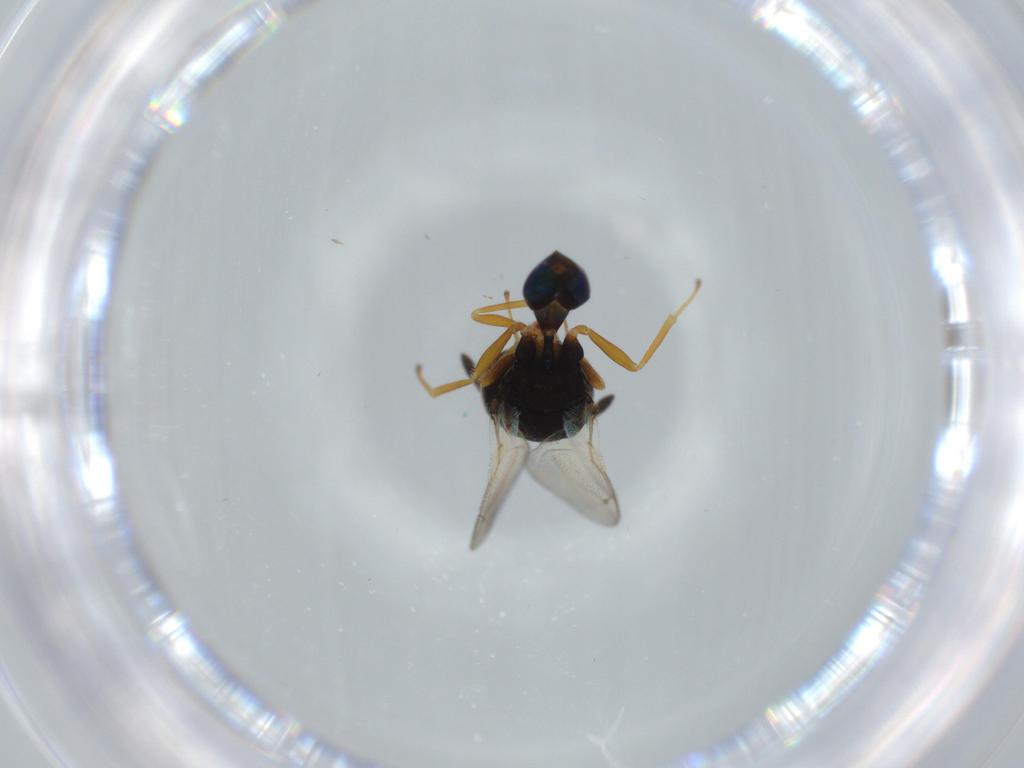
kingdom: Animalia
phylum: Arthropoda
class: Insecta
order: Hymenoptera
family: Pteromalidae
